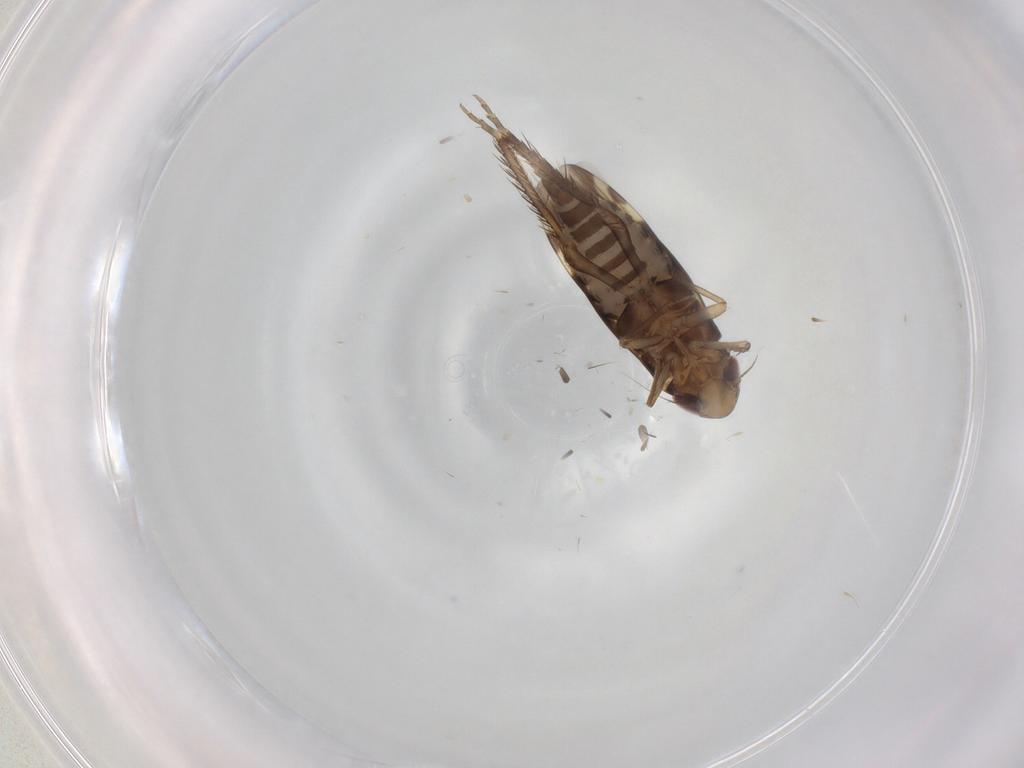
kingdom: Animalia
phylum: Arthropoda
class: Insecta
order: Hemiptera
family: Cicadellidae
